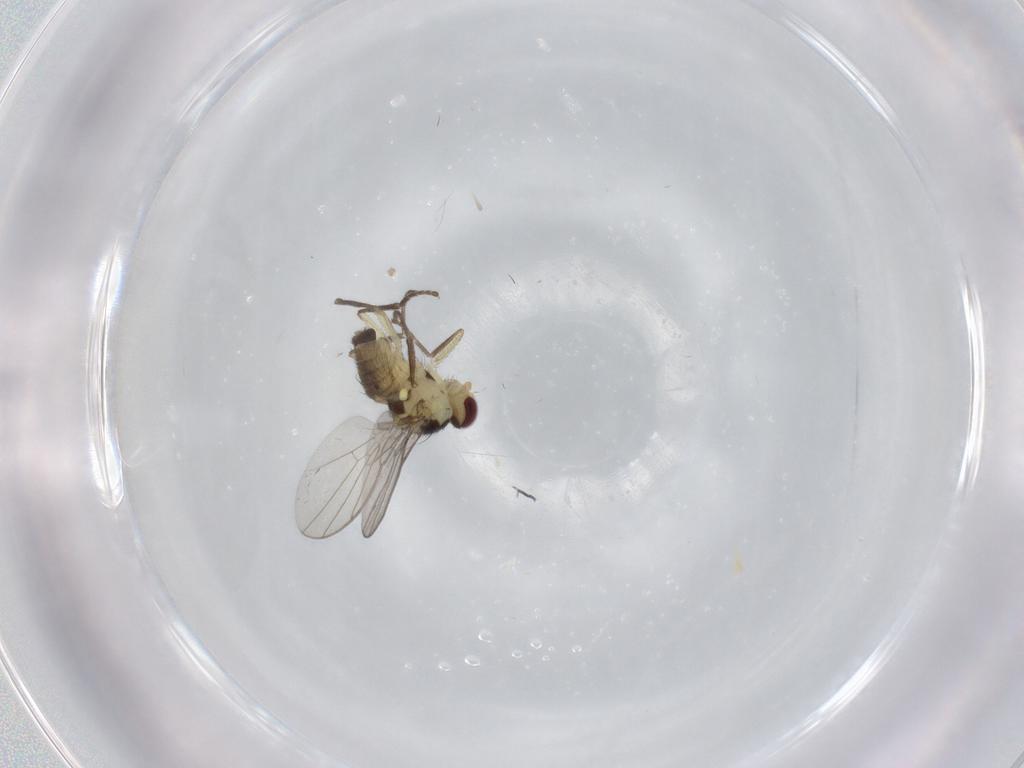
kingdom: Animalia
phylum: Arthropoda
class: Insecta
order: Diptera
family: Agromyzidae
